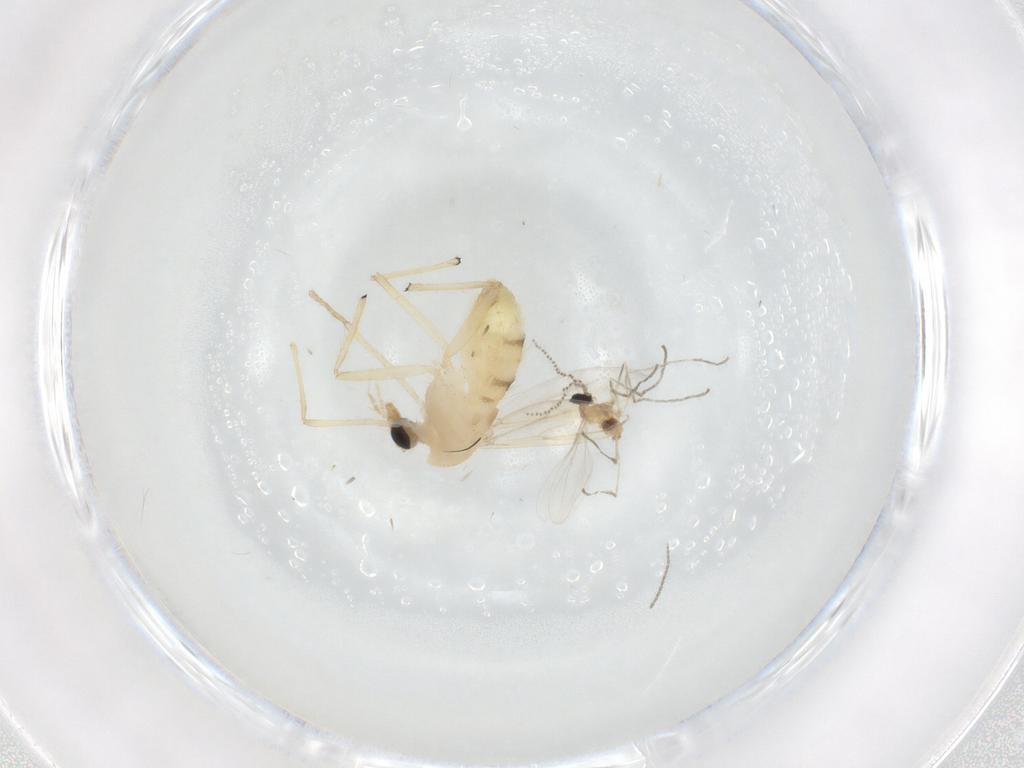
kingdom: Animalia
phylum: Arthropoda
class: Insecta
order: Diptera
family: Chironomidae
